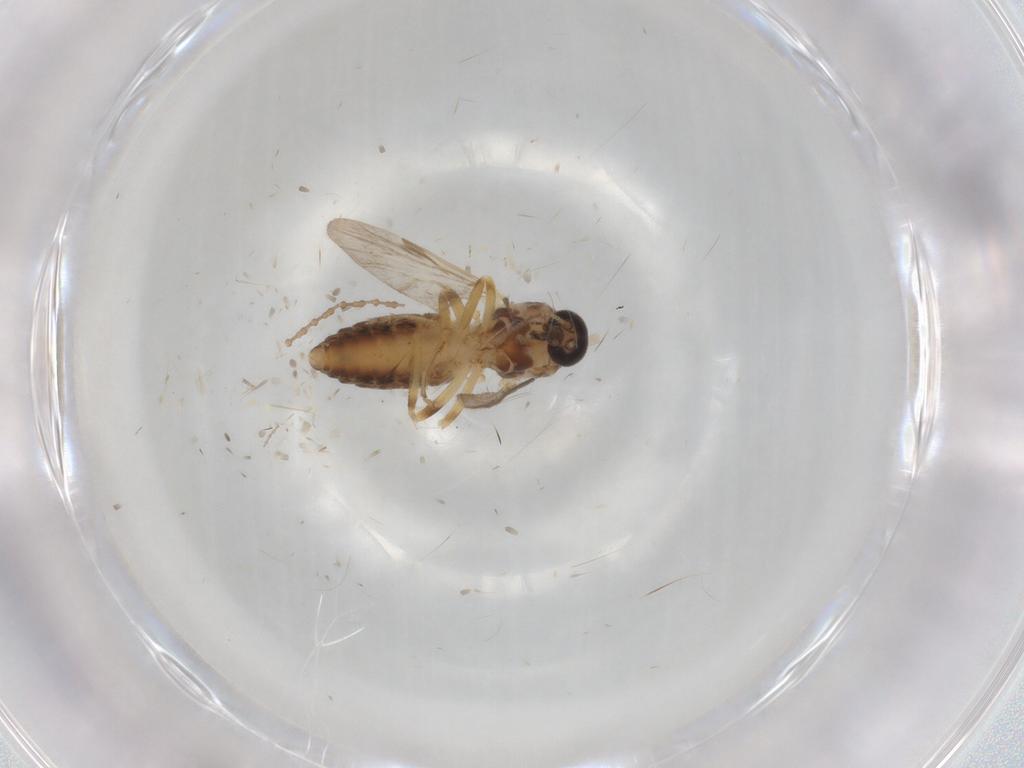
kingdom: Animalia
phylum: Arthropoda
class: Insecta
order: Diptera
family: Ceratopogonidae
